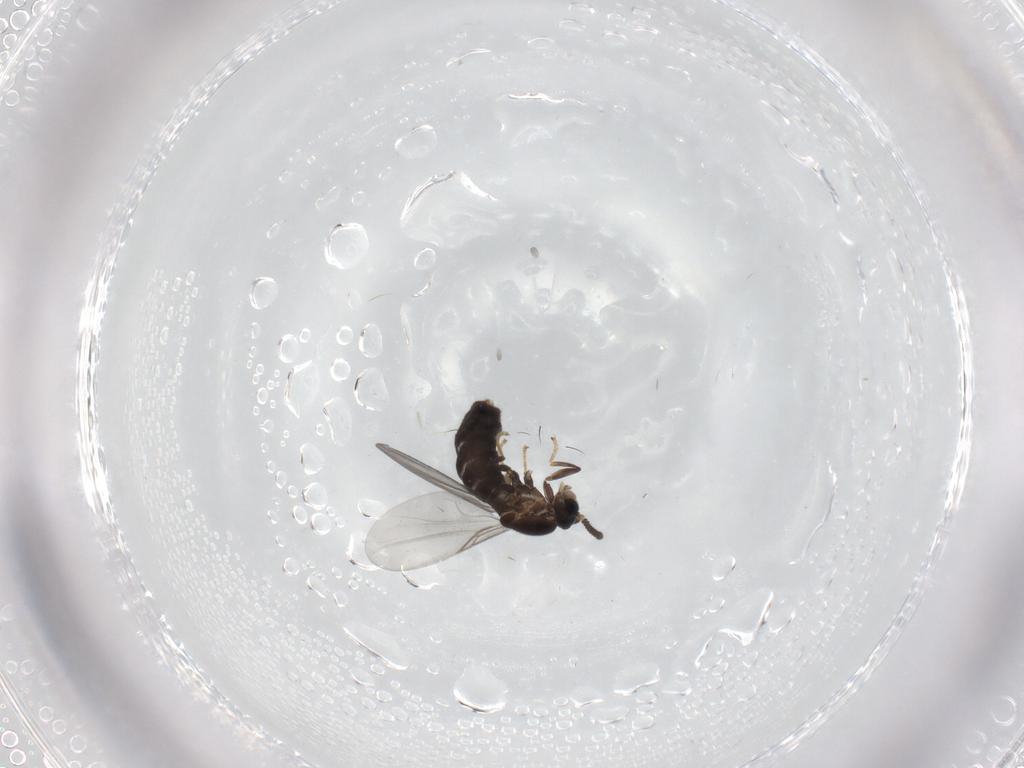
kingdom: Animalia
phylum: Arthropoda
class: Insecta
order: Diptera
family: Scatopsidae
